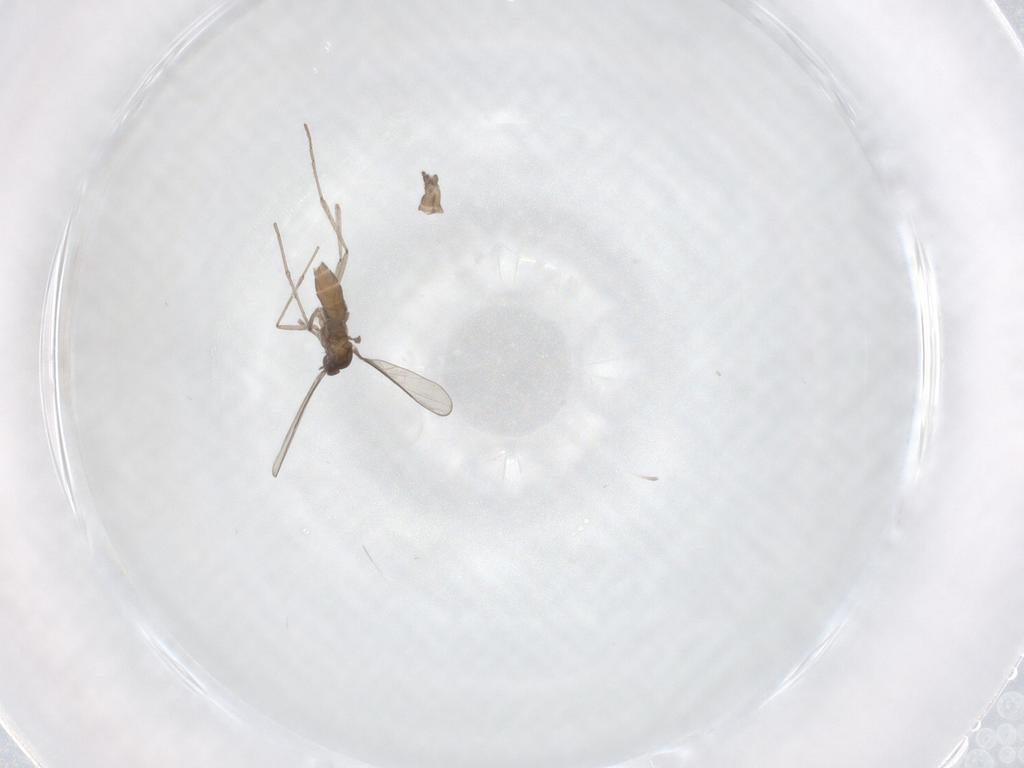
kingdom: Animalia
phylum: Arthropoda
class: Insecta
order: Diptera
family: Cecidomyiidae
